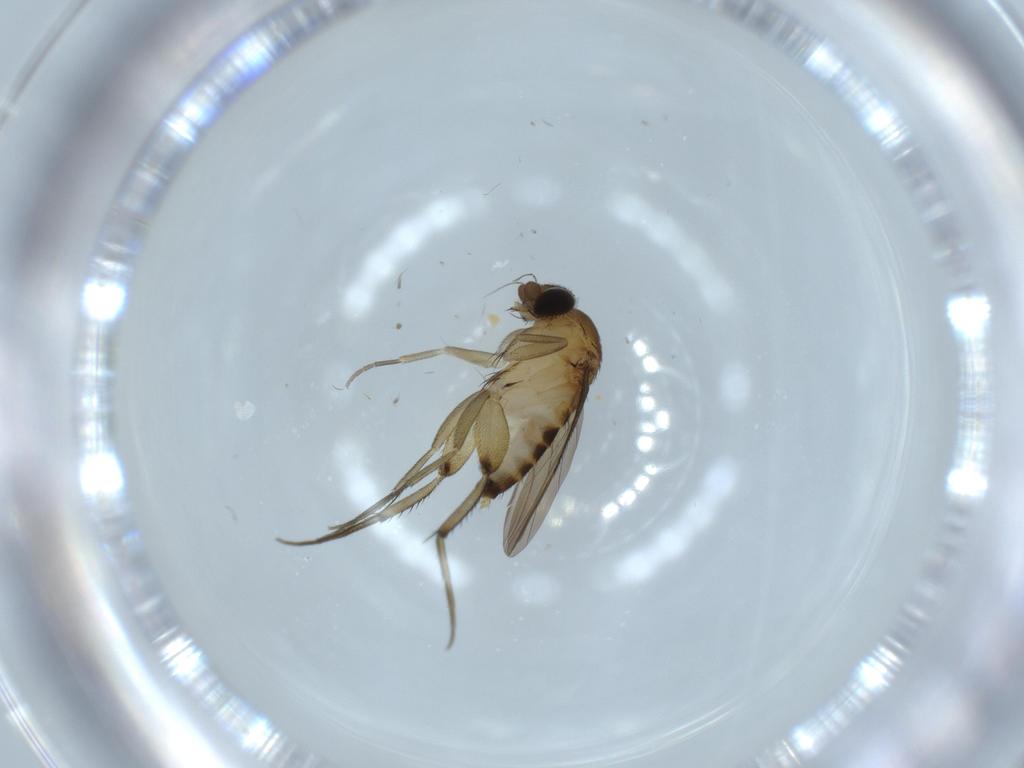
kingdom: Animalia
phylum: Arthropoda
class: Insecta
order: Diptera
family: Phoridae
